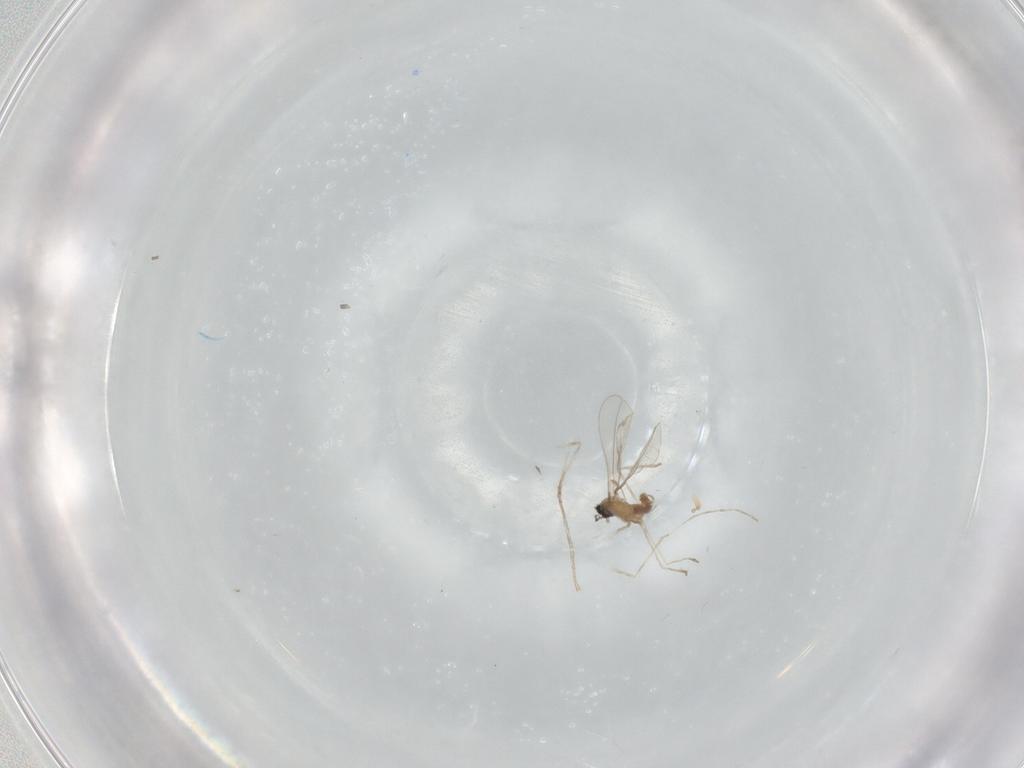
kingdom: Animalia
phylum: Arthropoda
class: Insecta
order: Diptera
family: Cecidomyiidae
